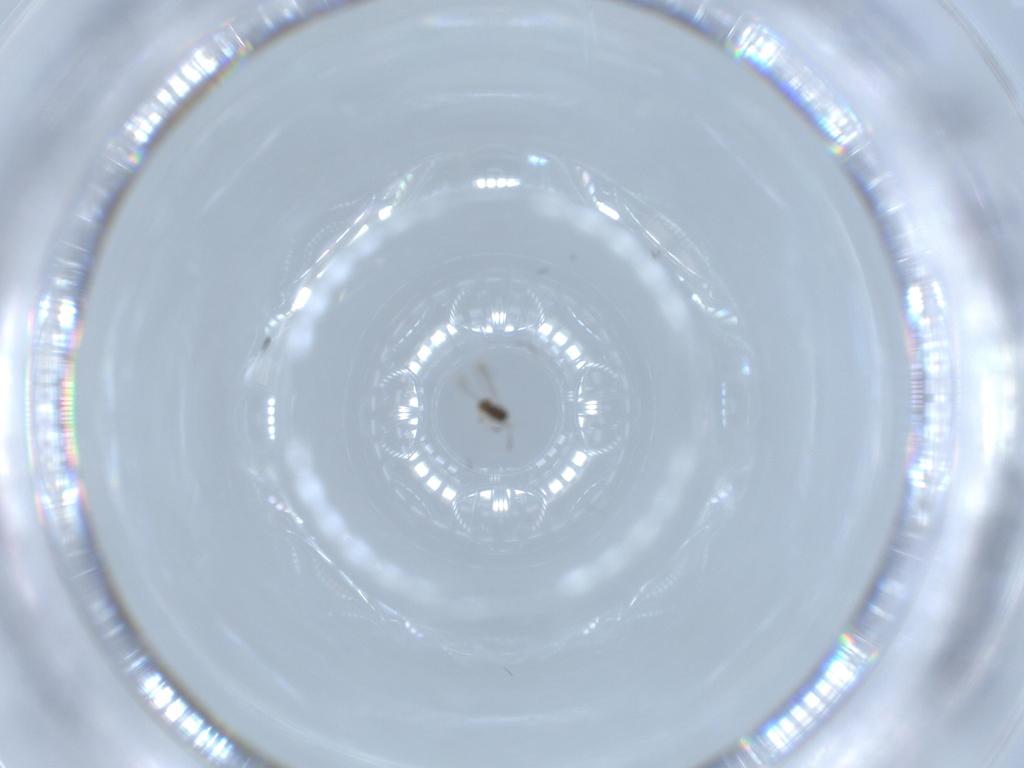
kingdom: Animalia
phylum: Arthropoda
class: Insecta
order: Hymenoptera
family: Mymaridae
